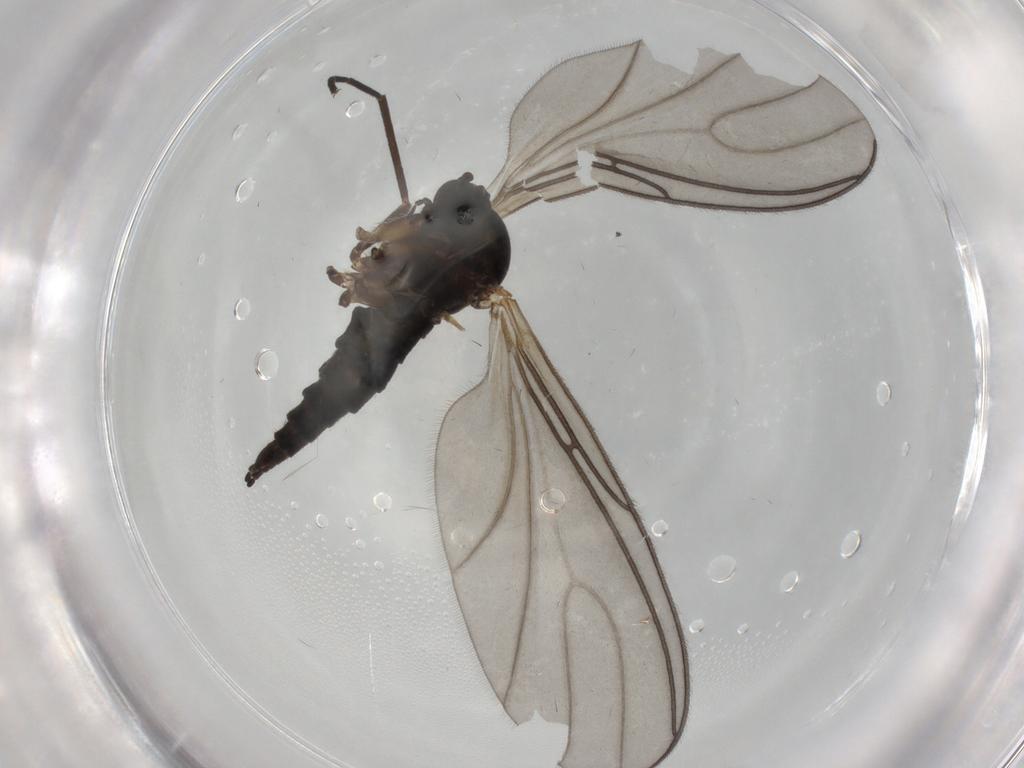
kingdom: Animalia
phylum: Arthropoda
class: Insecta
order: Diptera
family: Sciaridae
